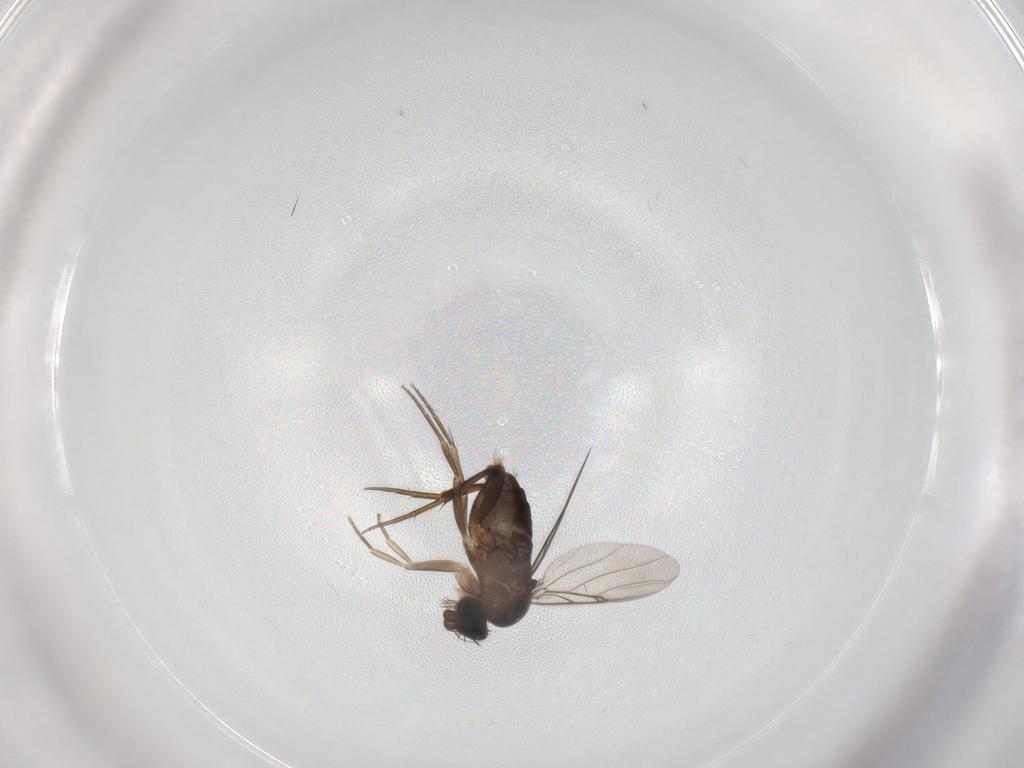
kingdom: Animalia
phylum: Arthropoda
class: Insecta
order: Diptera
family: Phoridae
